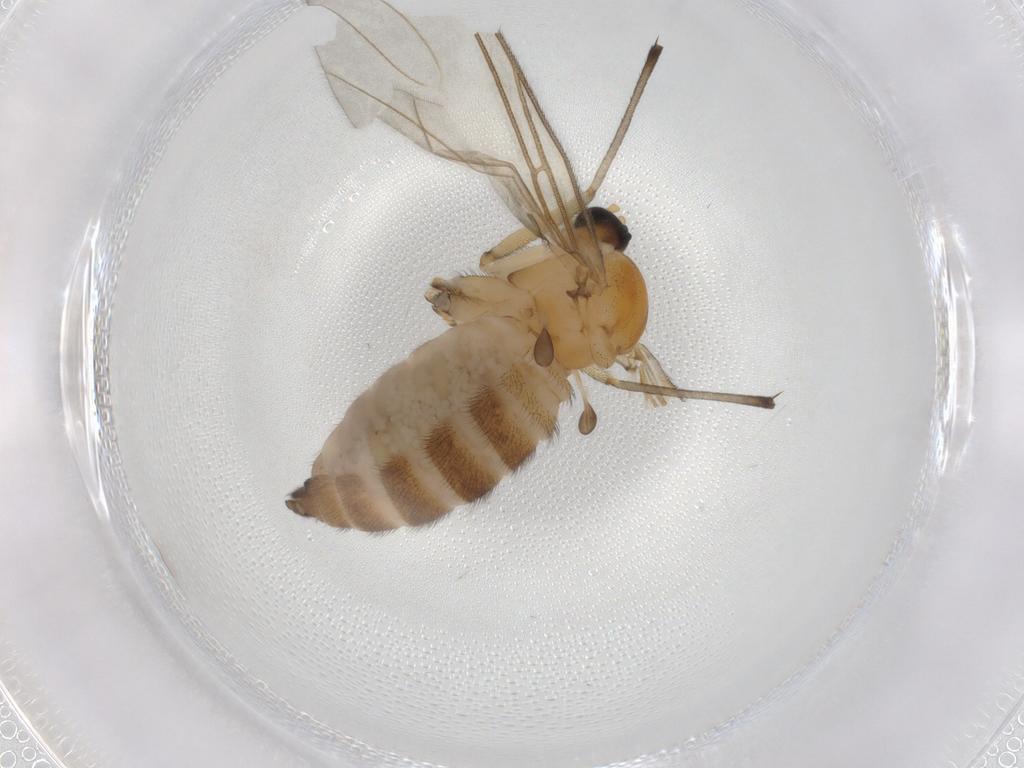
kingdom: Animalia
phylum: Arthropoda
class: Insecta
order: Diptera
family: Sciaridae
